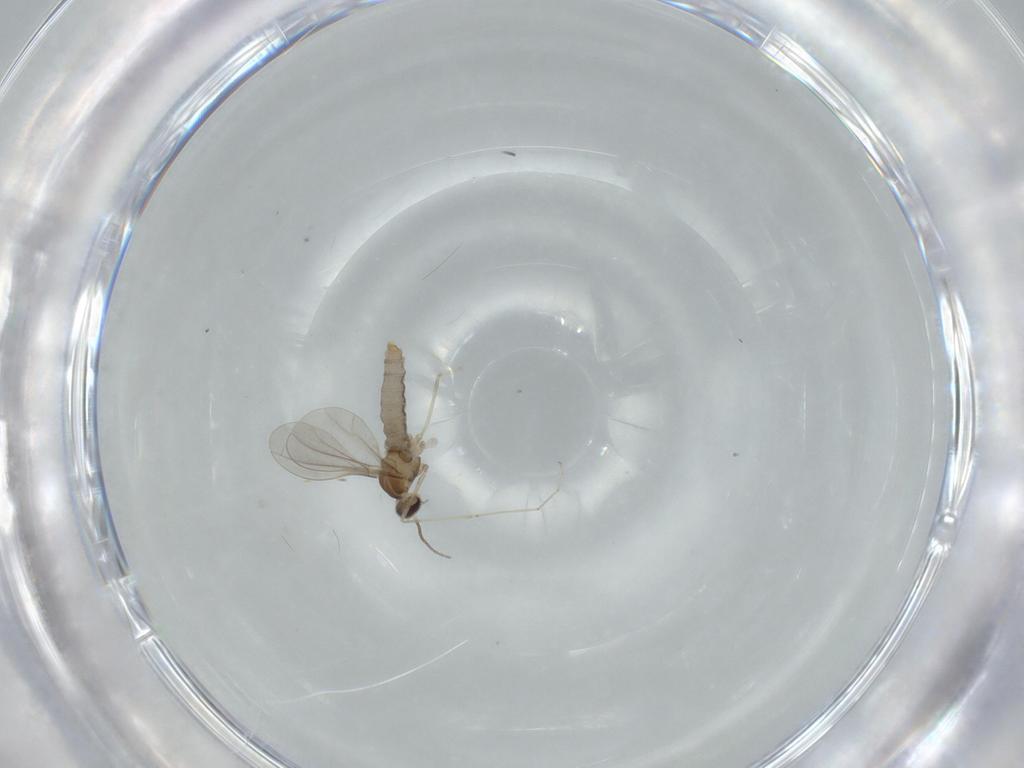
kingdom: Animalia
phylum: Arthropoda
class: Insecta
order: Diptera
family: Cecidomyiidae
